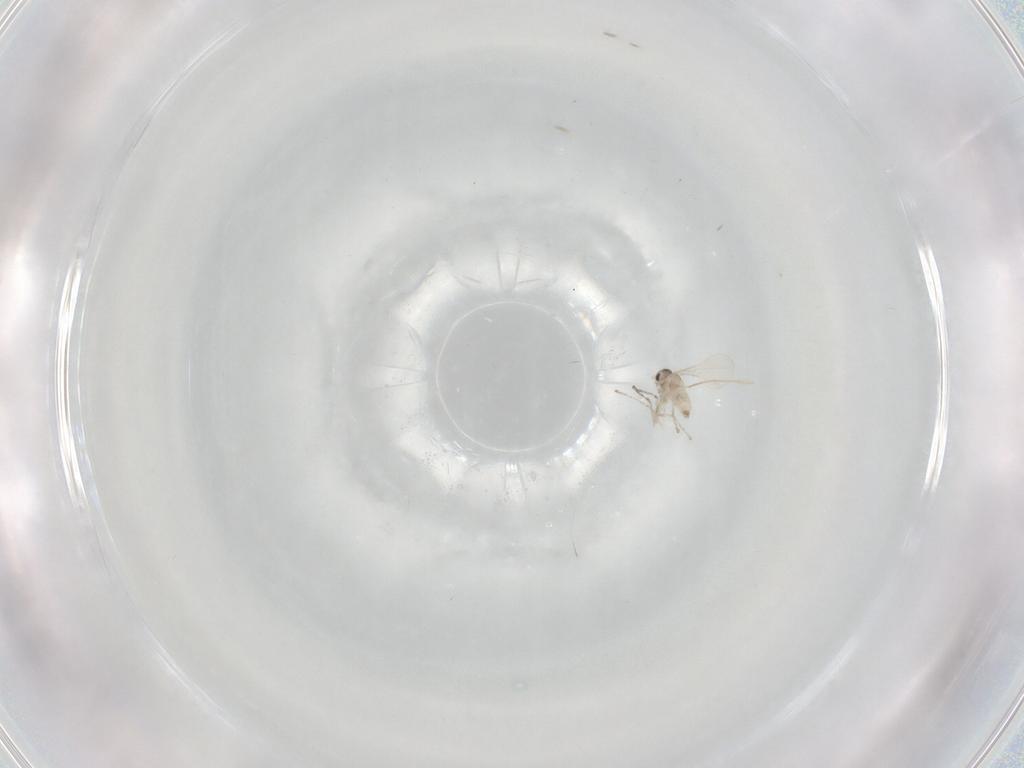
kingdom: Animalia
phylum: Arthropoda
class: Insecta
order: Diptera
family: Cecidomyiidae
